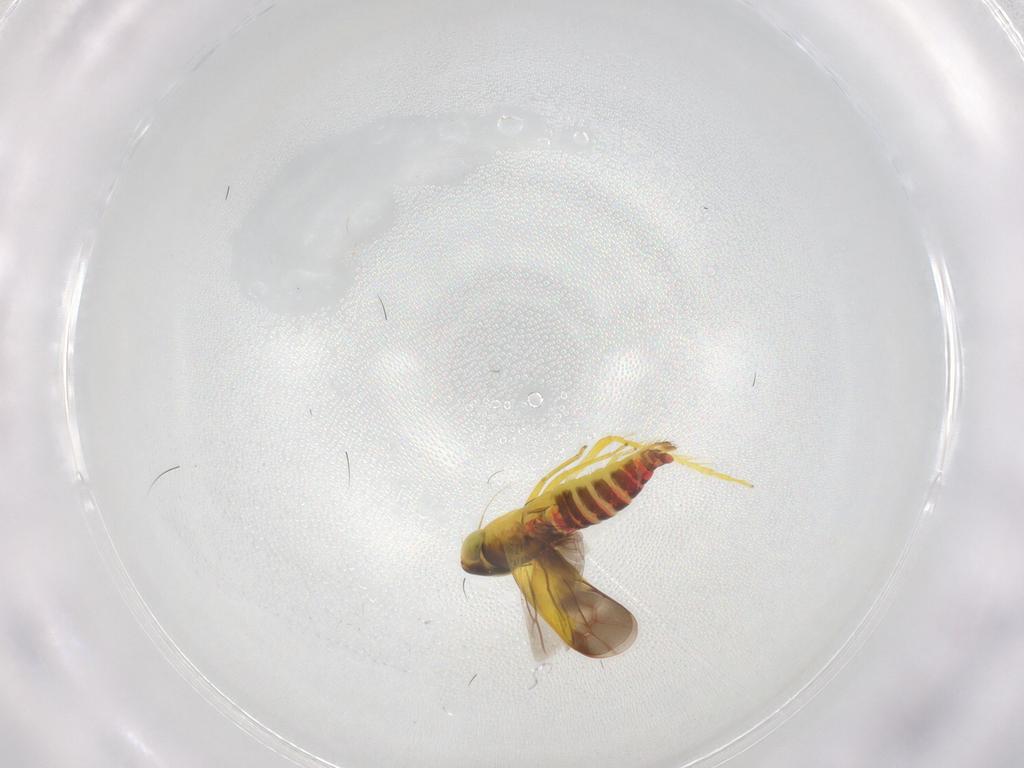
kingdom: Animalia
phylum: Arthropoda
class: Insecta
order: Hemiptera
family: Cicadellidae
